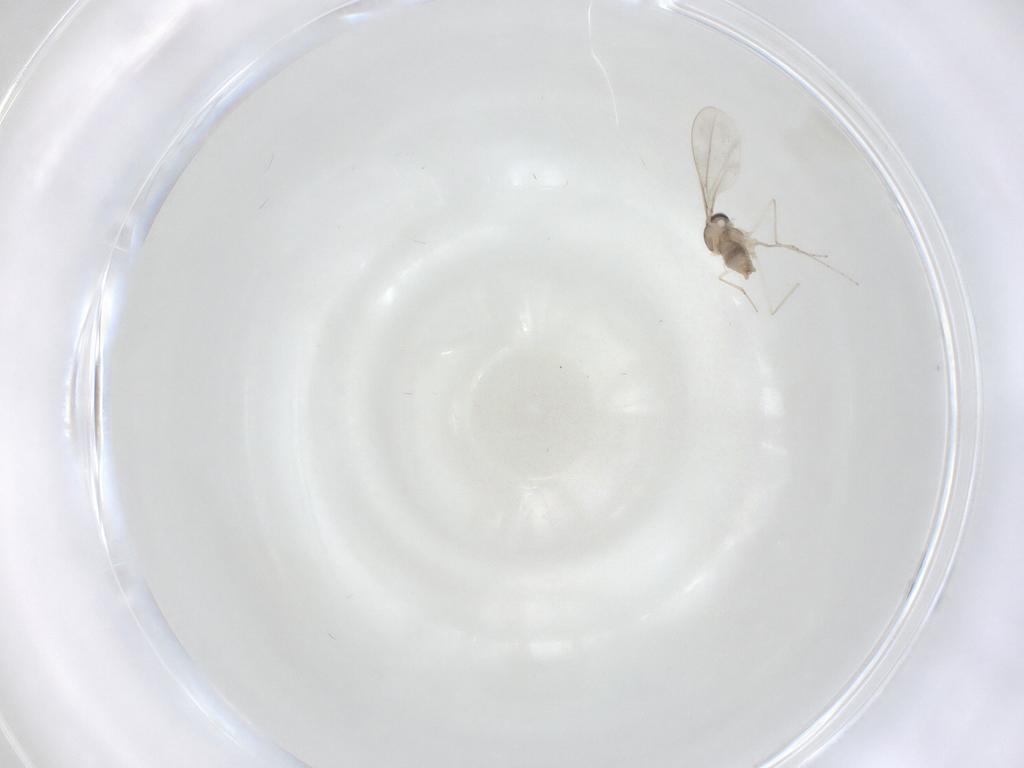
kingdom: Animalia
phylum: Arthropoda
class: Insecta
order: Diptera
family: Cecidomyiidae
